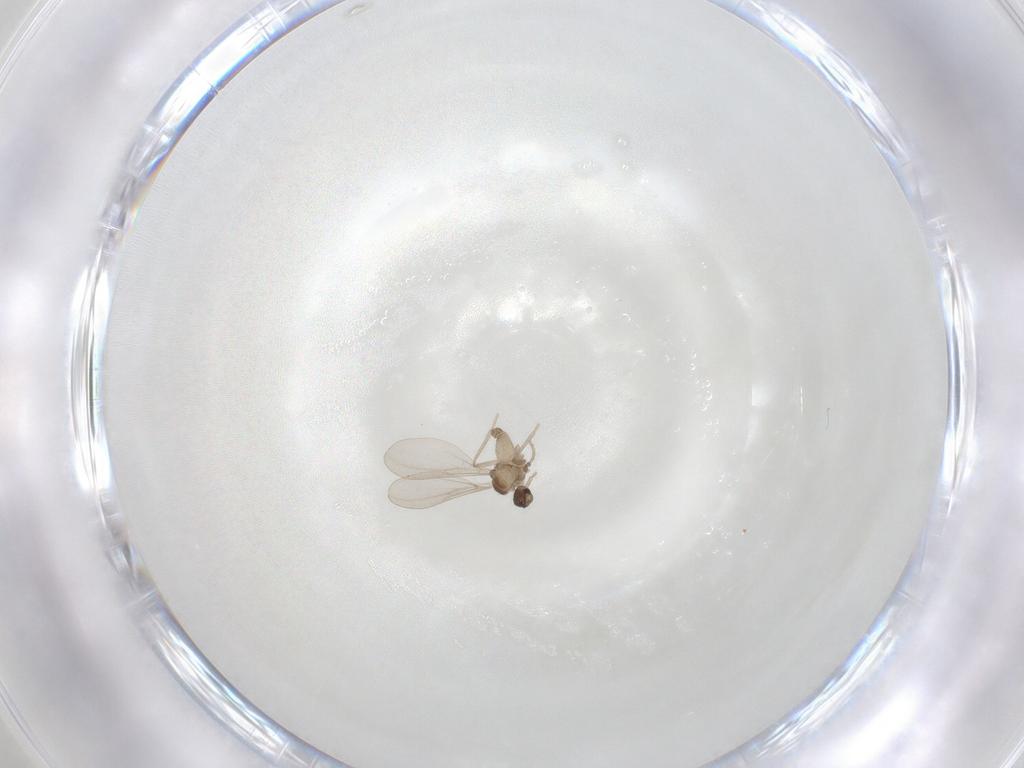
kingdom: Animalia
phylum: Arthropoda
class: Insecta
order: Diptera
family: Cecidomyiidae
